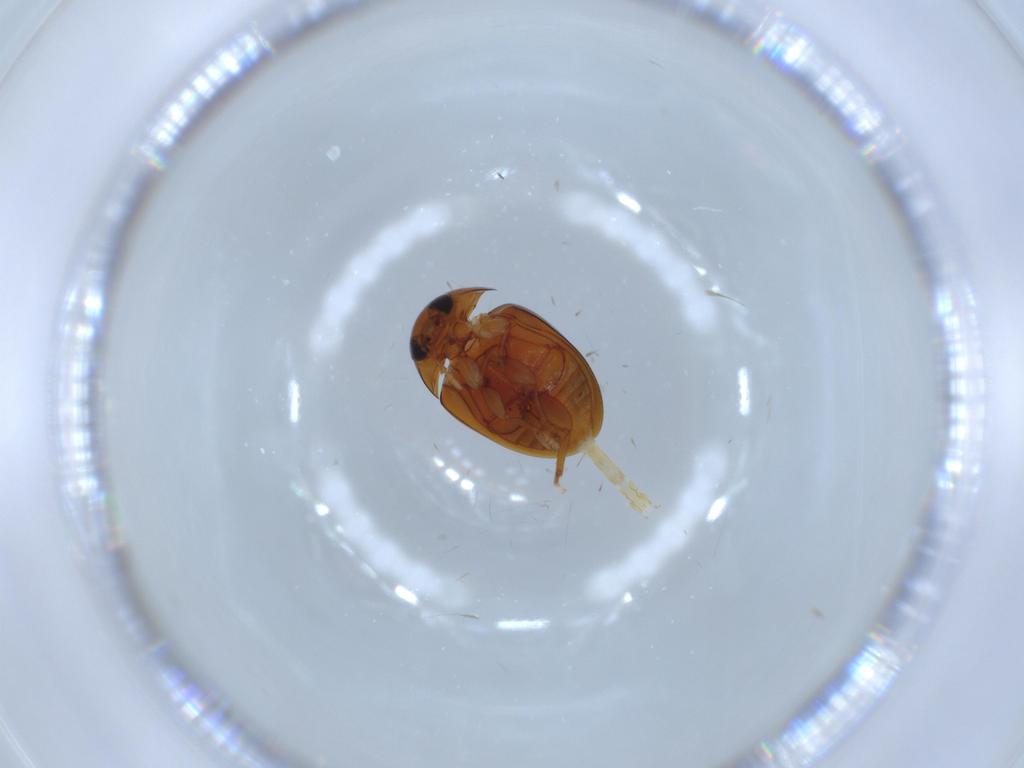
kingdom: Animalia
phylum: Arthropoda
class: Insecta
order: Coleoptera
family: Phalacridae
